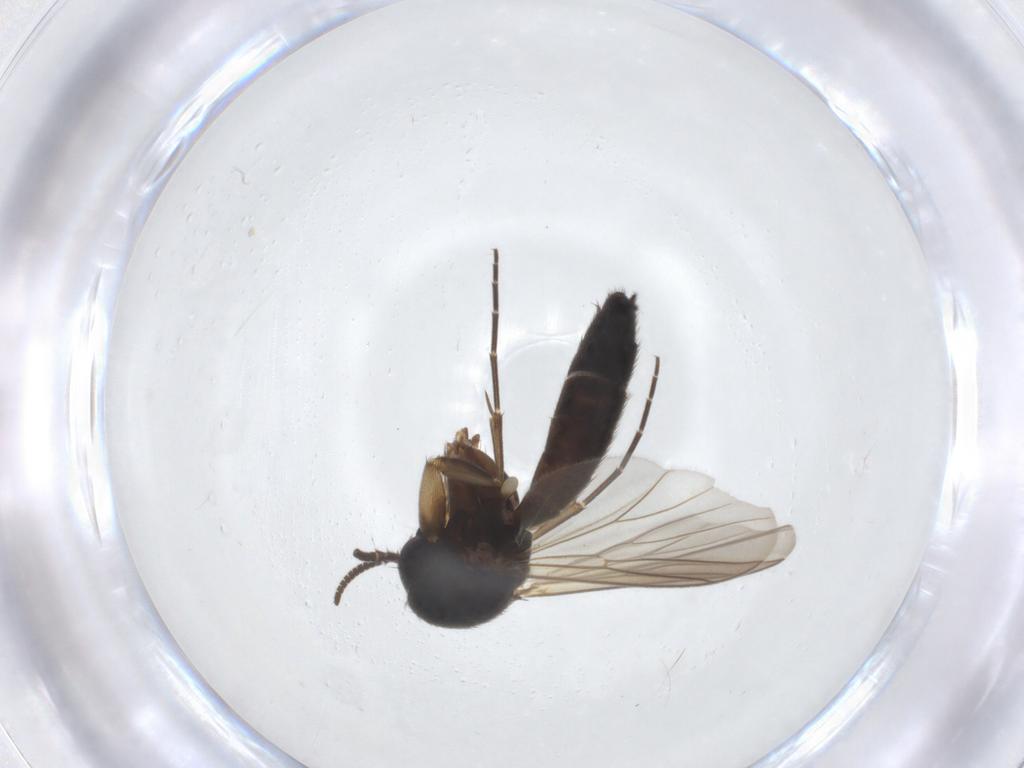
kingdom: Animalia
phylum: Arthropoda
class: Insecta
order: Diptera
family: Mycetophilidae
